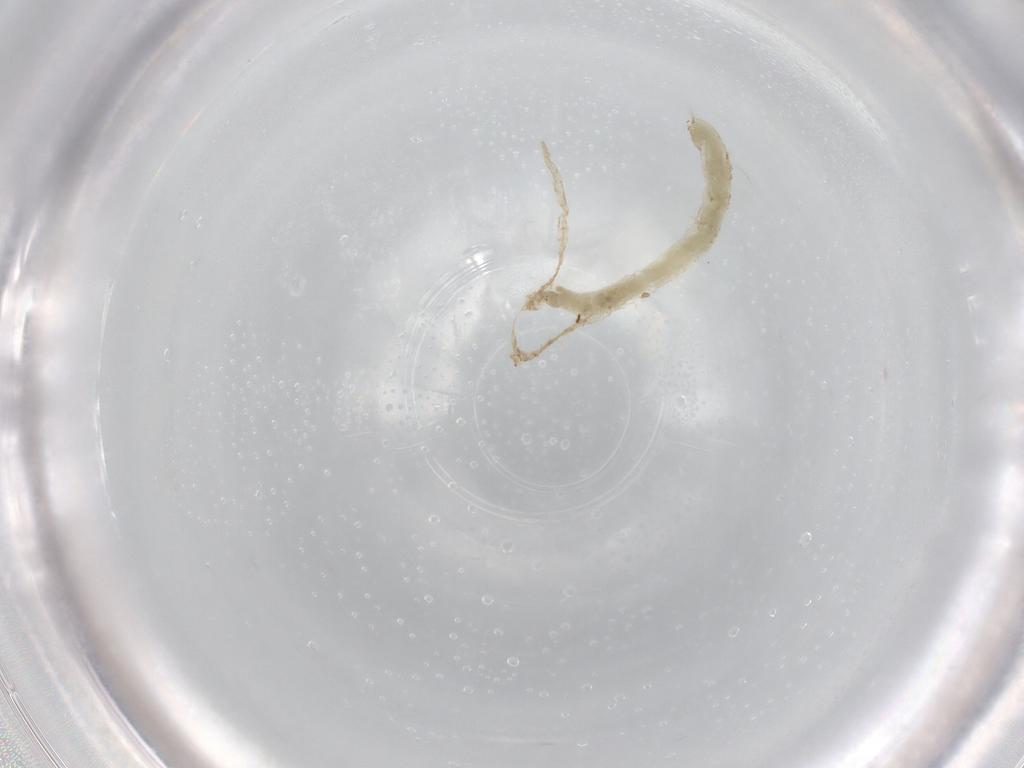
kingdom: Animalia
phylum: Arthropoda
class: Insecta
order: Diptera
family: Chironomidae
